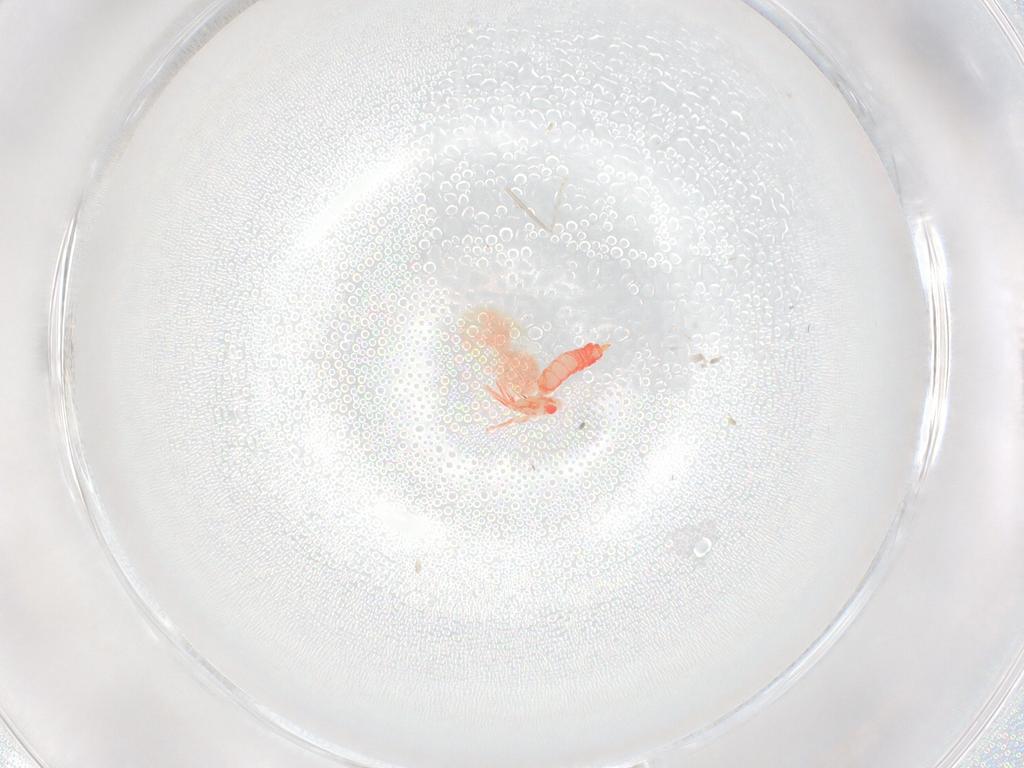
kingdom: Animalia
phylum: Arthropoda
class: Insecta
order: Hemiptera
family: Aleyrodidae
